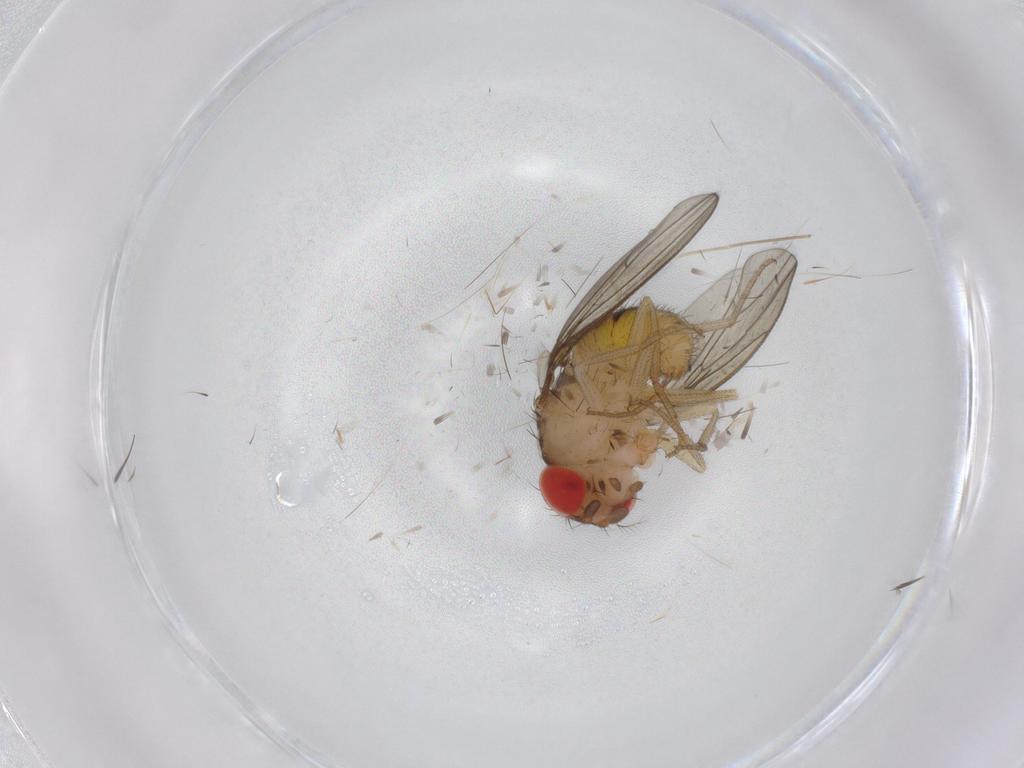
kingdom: Animalia
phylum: Arthropoda
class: Insecta
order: Diptera
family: Drosophilidae
